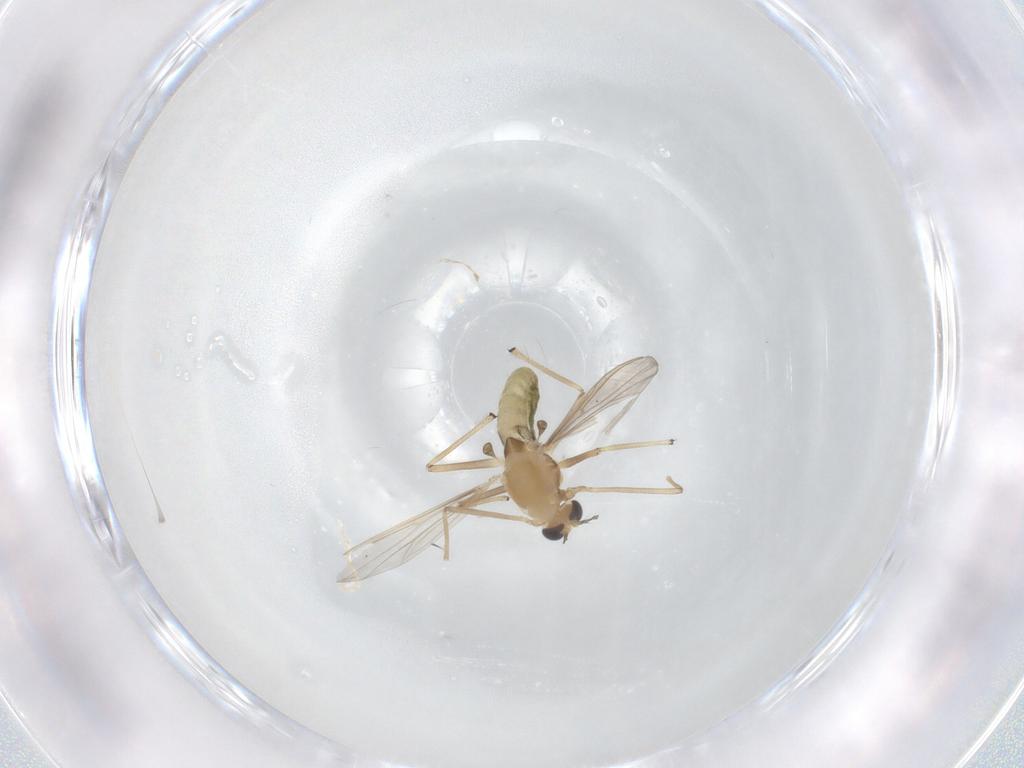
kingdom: Animalia
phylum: Arthropoda
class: Insecta
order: Diptera
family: Chironomidae
